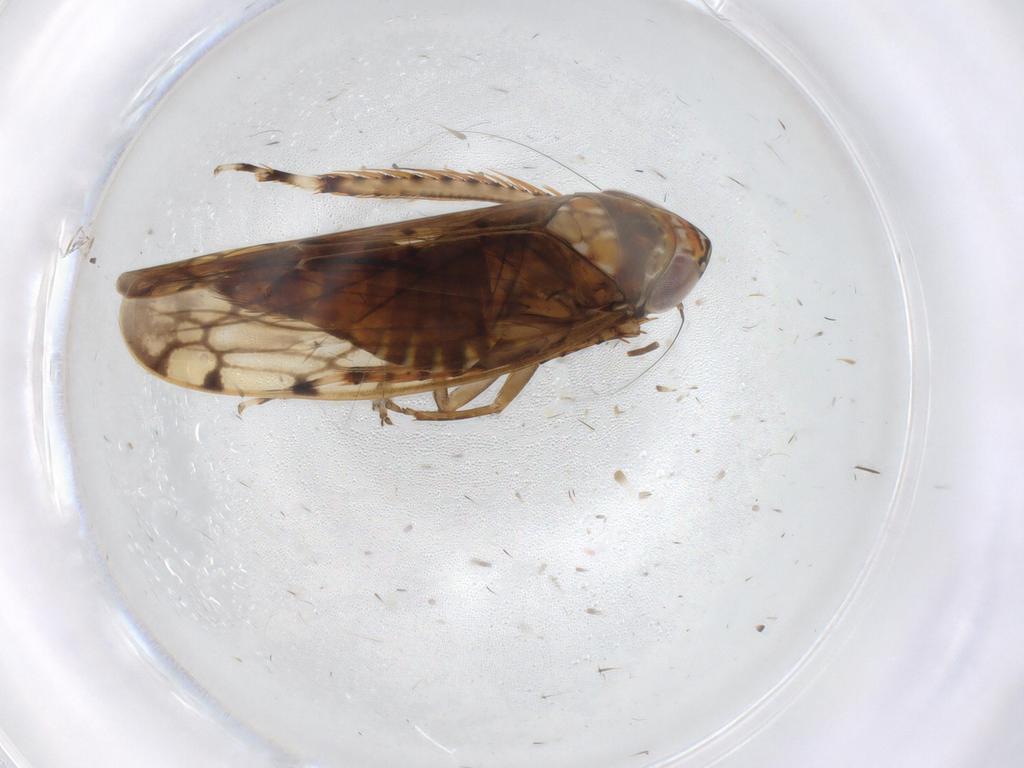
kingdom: Animalia
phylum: Arthropoda
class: Insecta
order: Hemiptera
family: Cicadellidae
